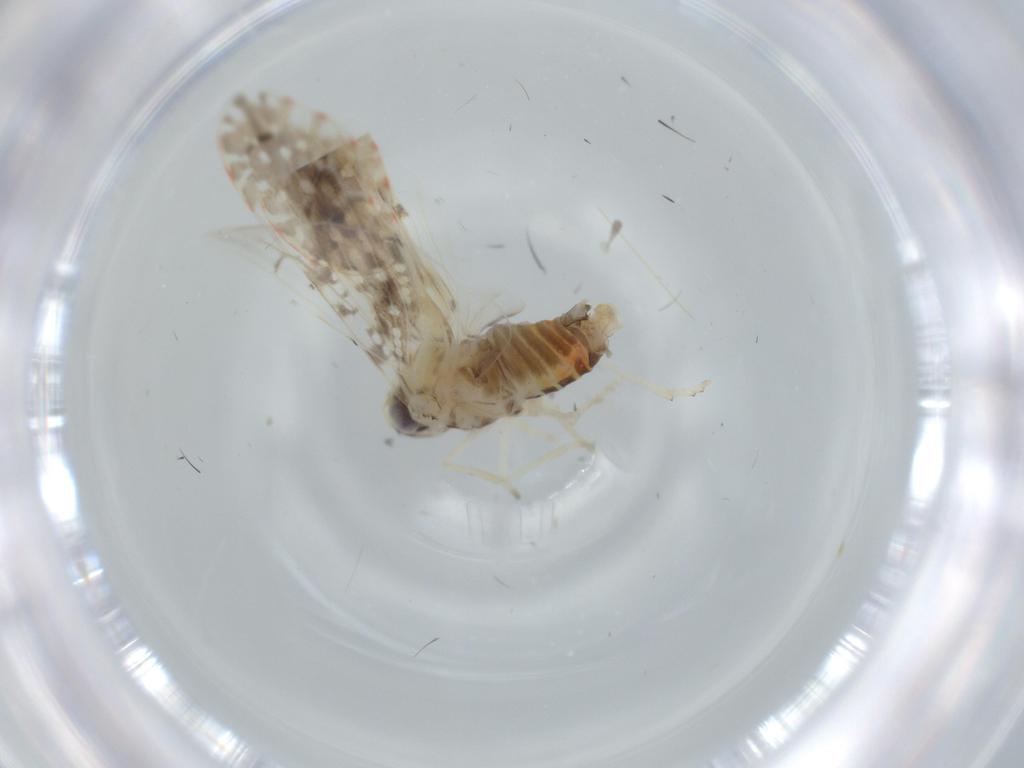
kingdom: Animalia
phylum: Arthropoda
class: Insecta
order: Hemiptera
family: Derbidae
